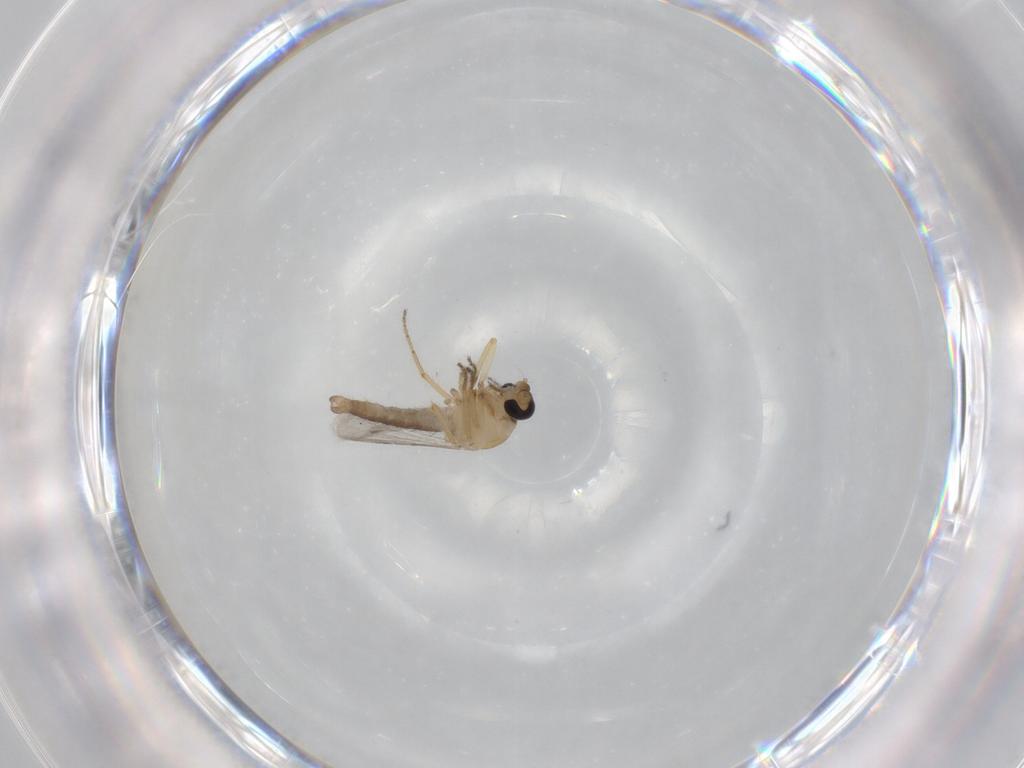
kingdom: Animalia
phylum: Arthropoda
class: Insecta
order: Diptera
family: Ceratopogonidae
